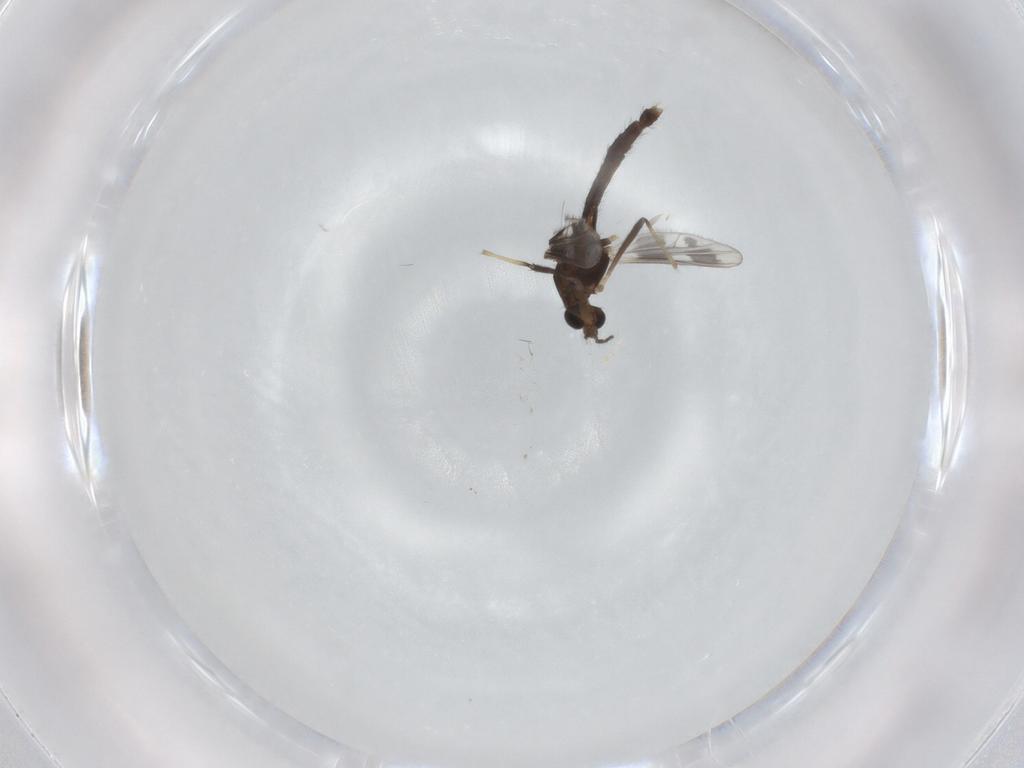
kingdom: Animalia
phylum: Arthropoda
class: Insecta
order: Diptera
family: Chironomidae
